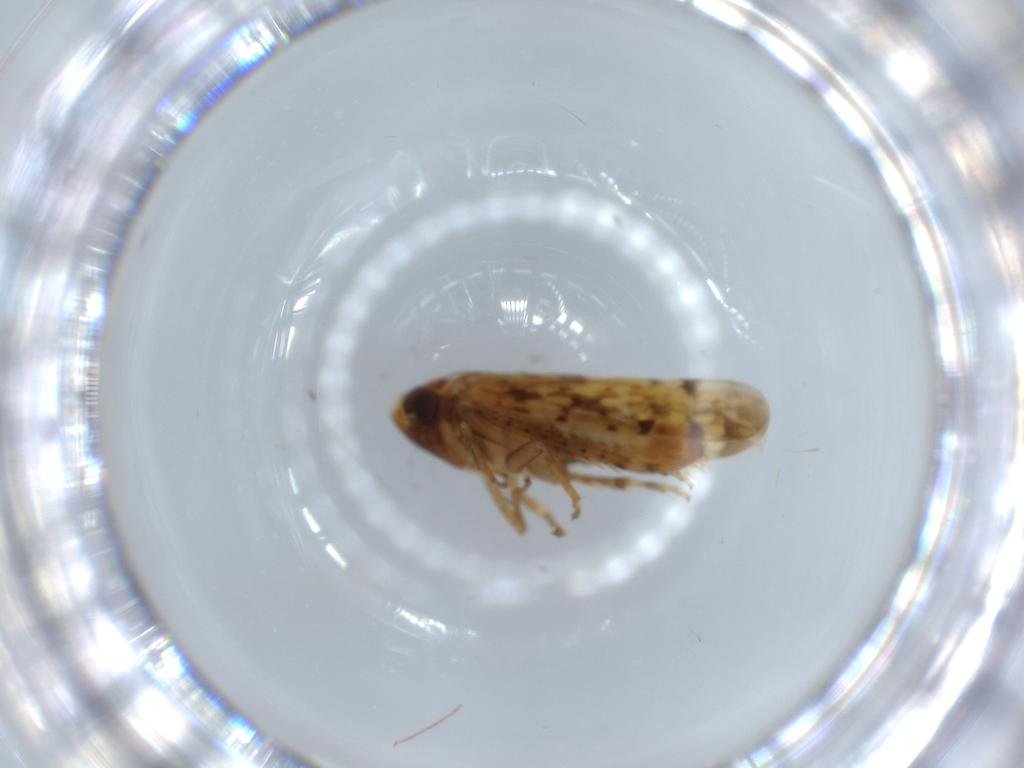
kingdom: Animalia
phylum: Arthropoda
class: Insecta
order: Hemiptera
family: Cicadellidae
